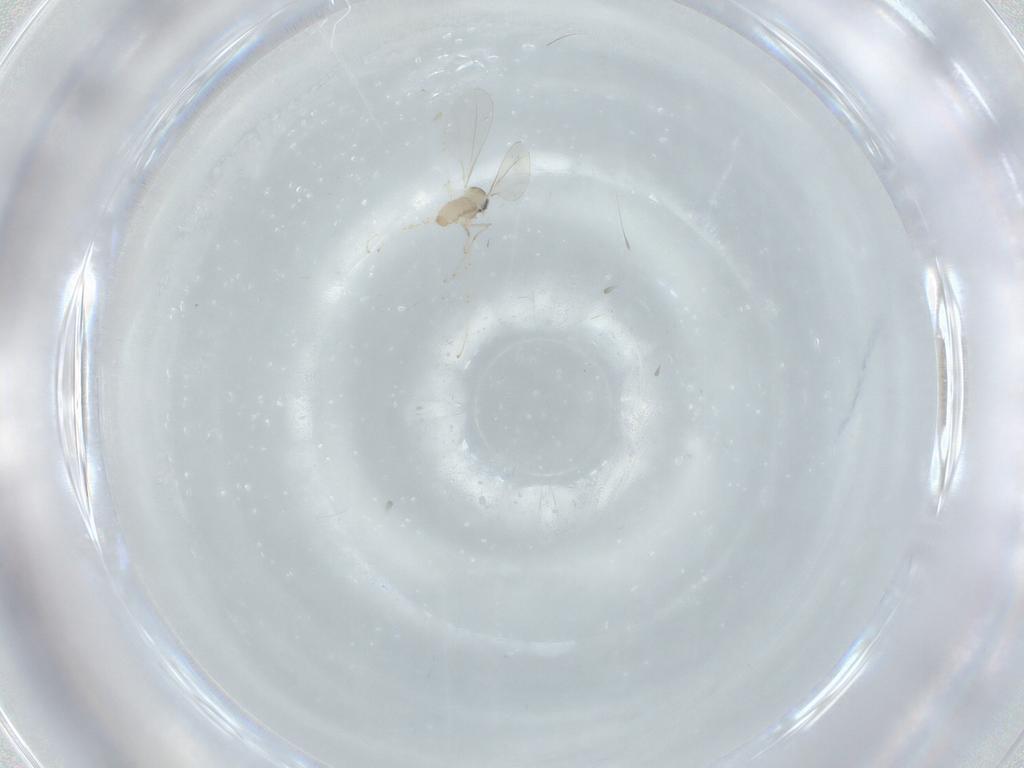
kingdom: Animalia
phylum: Arthropoda
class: Insecta
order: Diptera
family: Cecidomyiidae
